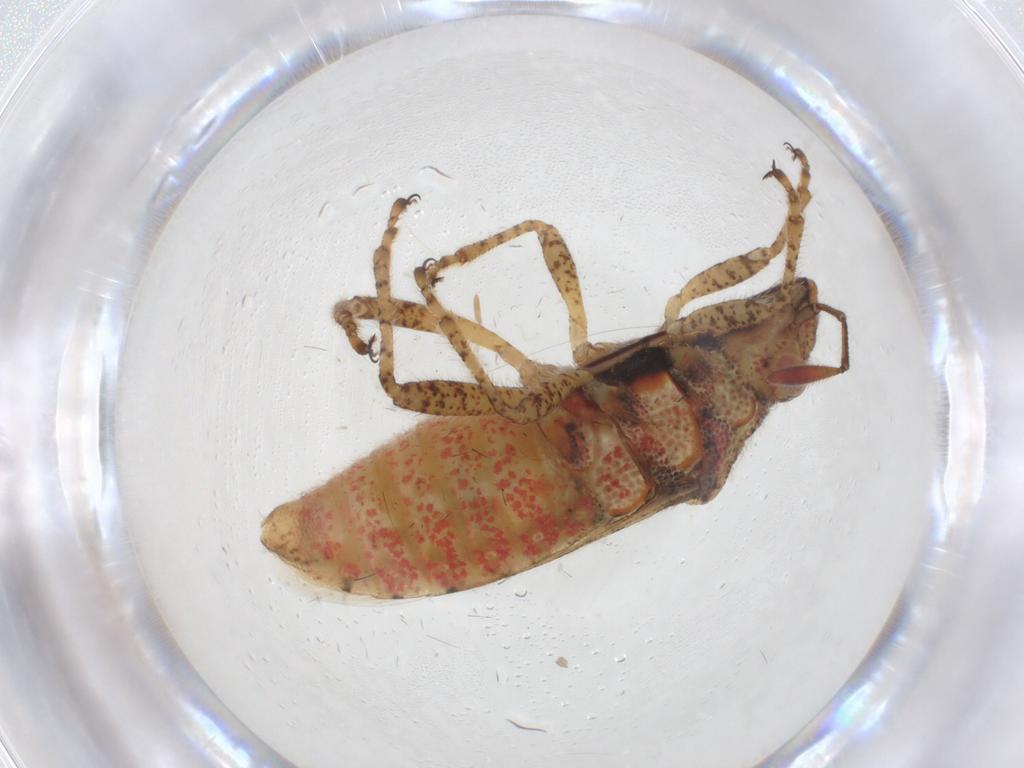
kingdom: Animalia
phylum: Arthropoda
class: Insecta
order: Hemiptera
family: Rhopalidae
